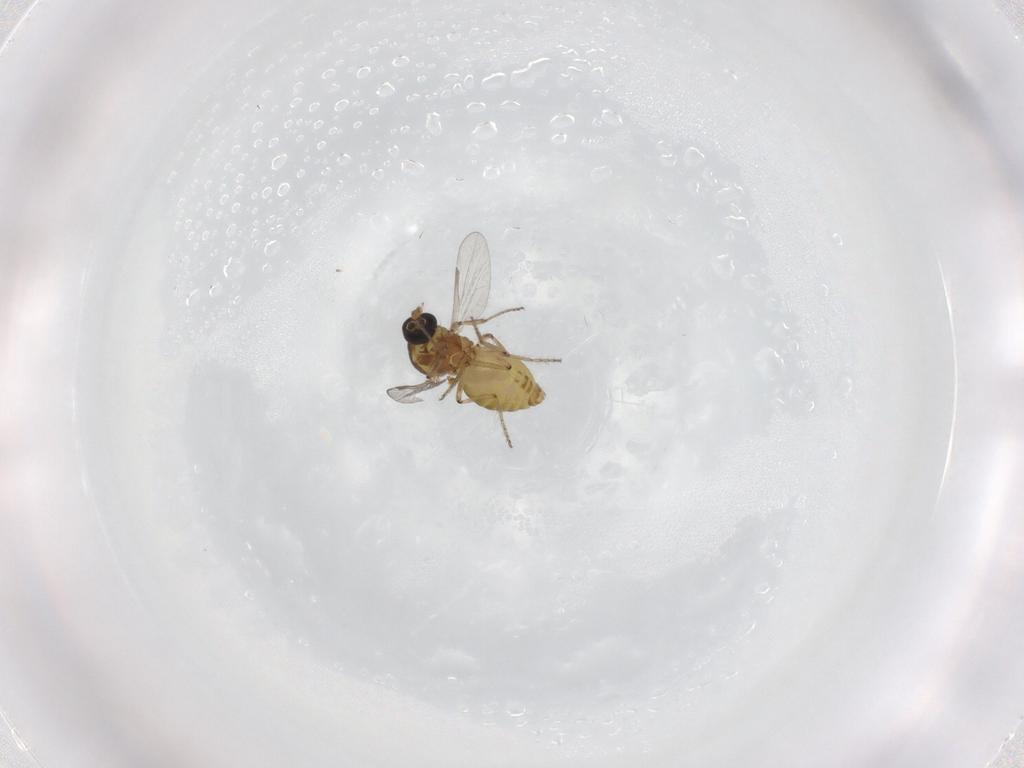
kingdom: Animalia
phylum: Arthropoda
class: Insecta
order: Diptera
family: Ceratopogonidae
